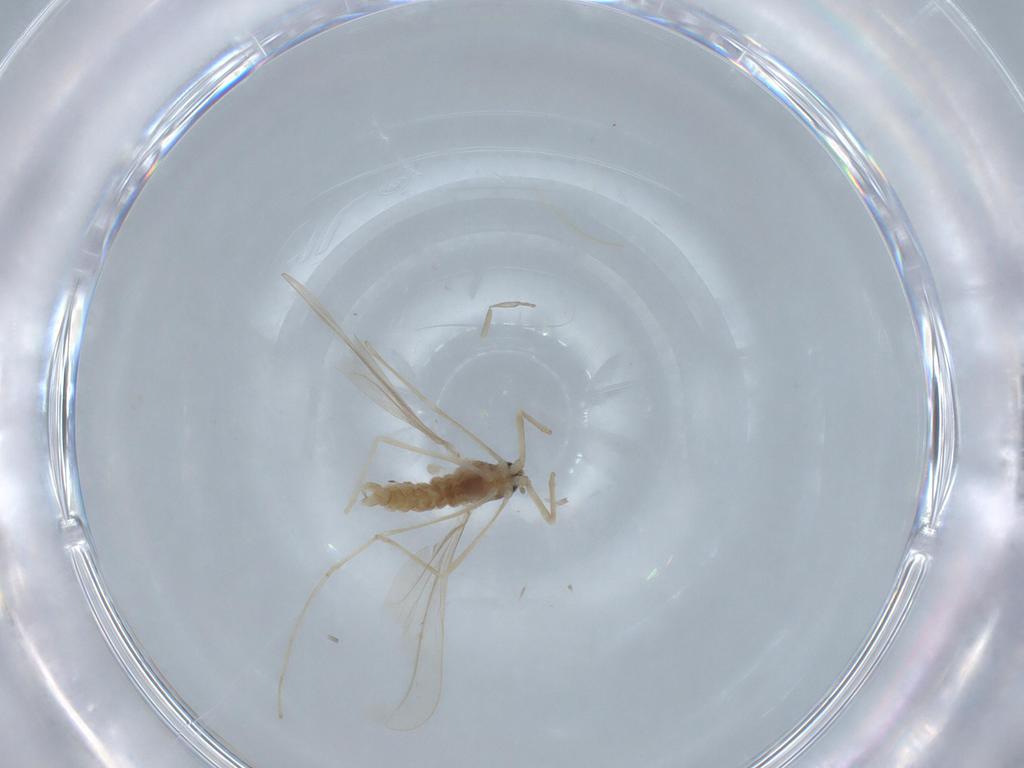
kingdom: Animalia
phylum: Arthropoda
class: Insecta
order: Diptera
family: Cecidomyiidae
